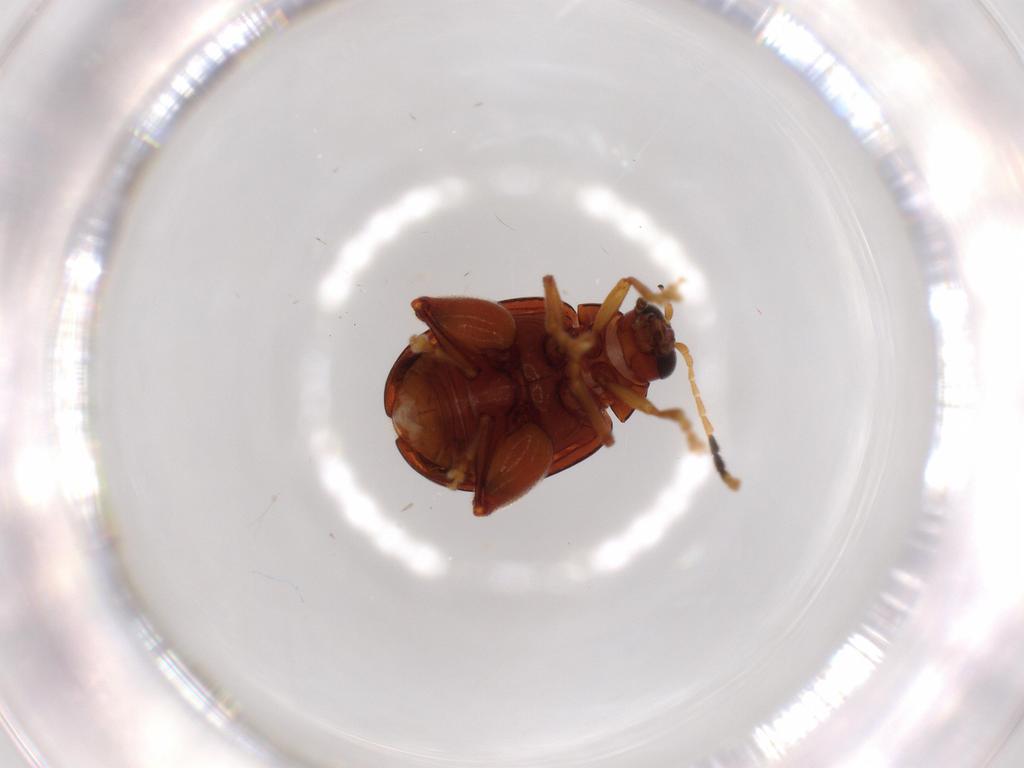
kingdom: Animalia
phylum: Arthropoda
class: Insecta
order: Coleoptera
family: Chrysomelidae
